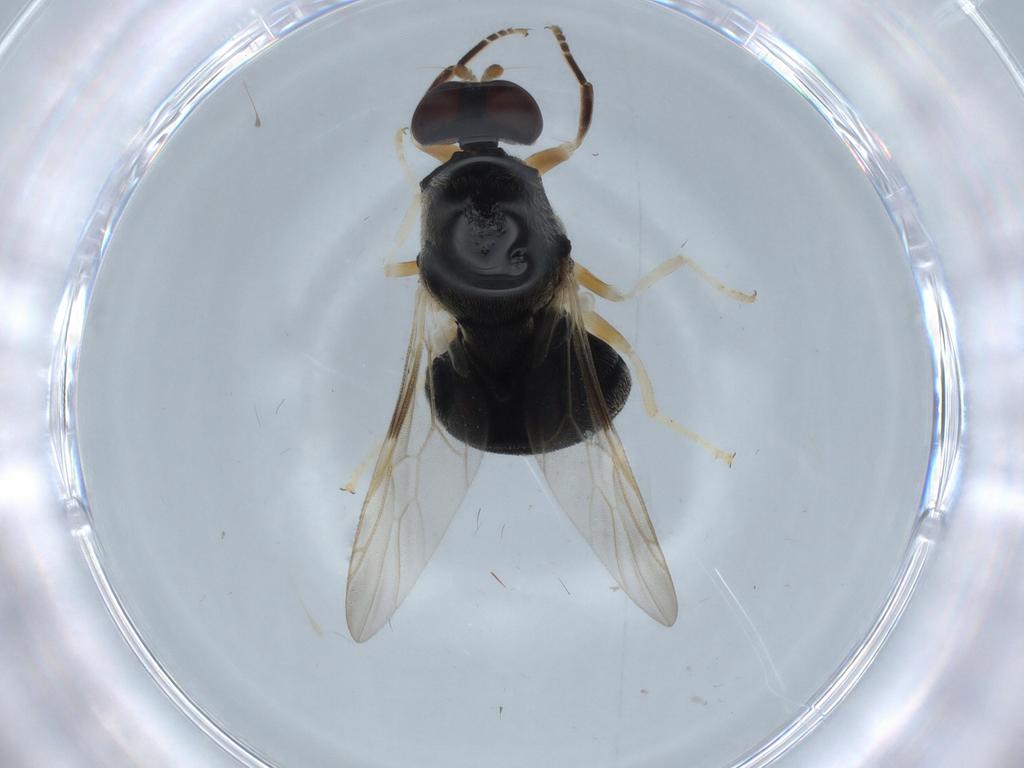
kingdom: Animalia
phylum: Arthropoda
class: Insecta
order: Diptera
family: Stratiomyidae
